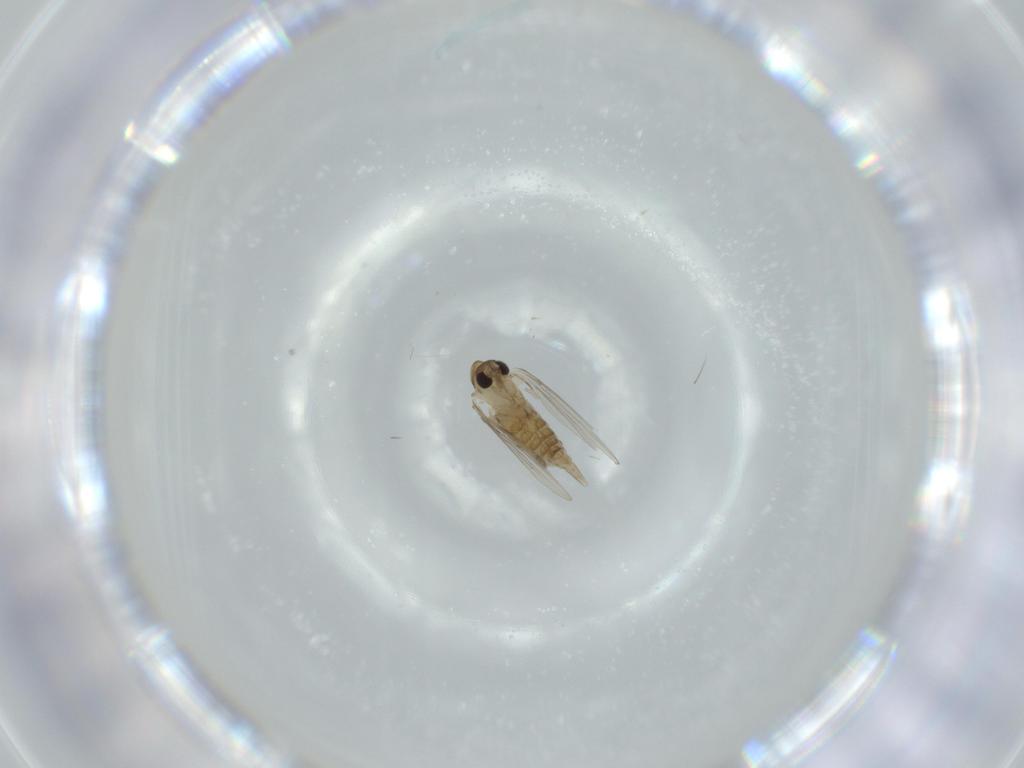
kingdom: Animalia
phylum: Arthropoda
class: Insecta
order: Diptera
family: Psychodidae
